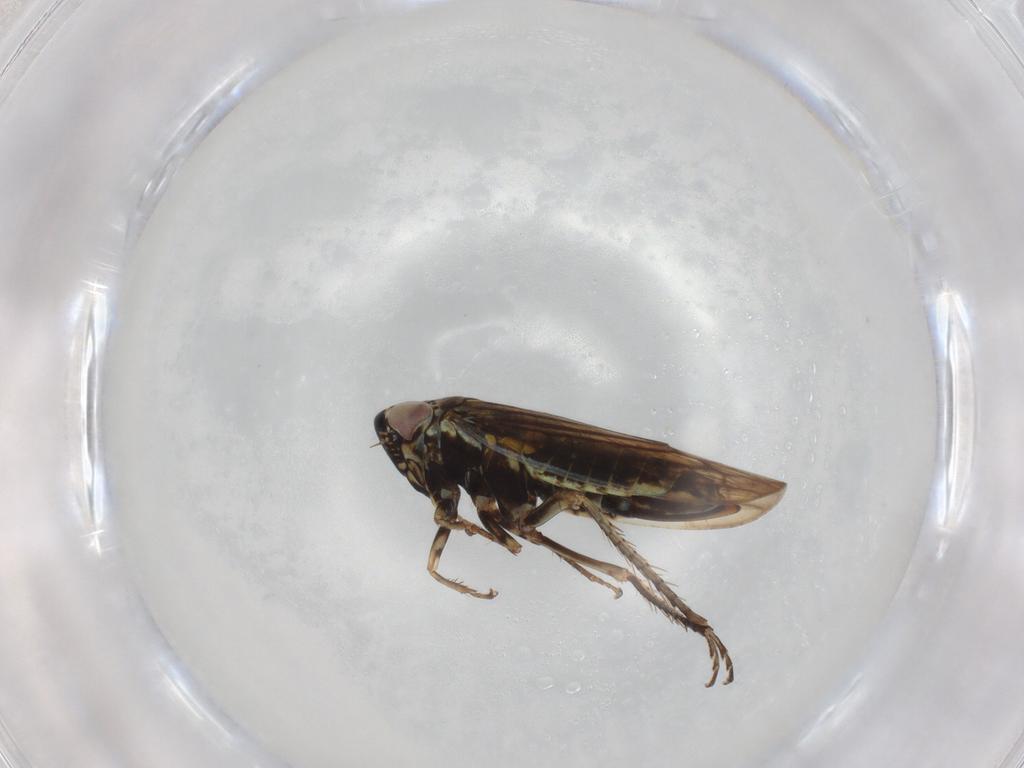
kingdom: Animalia
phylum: Arthropoda
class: Insecta
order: Hemiptera
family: Cicadellidae
